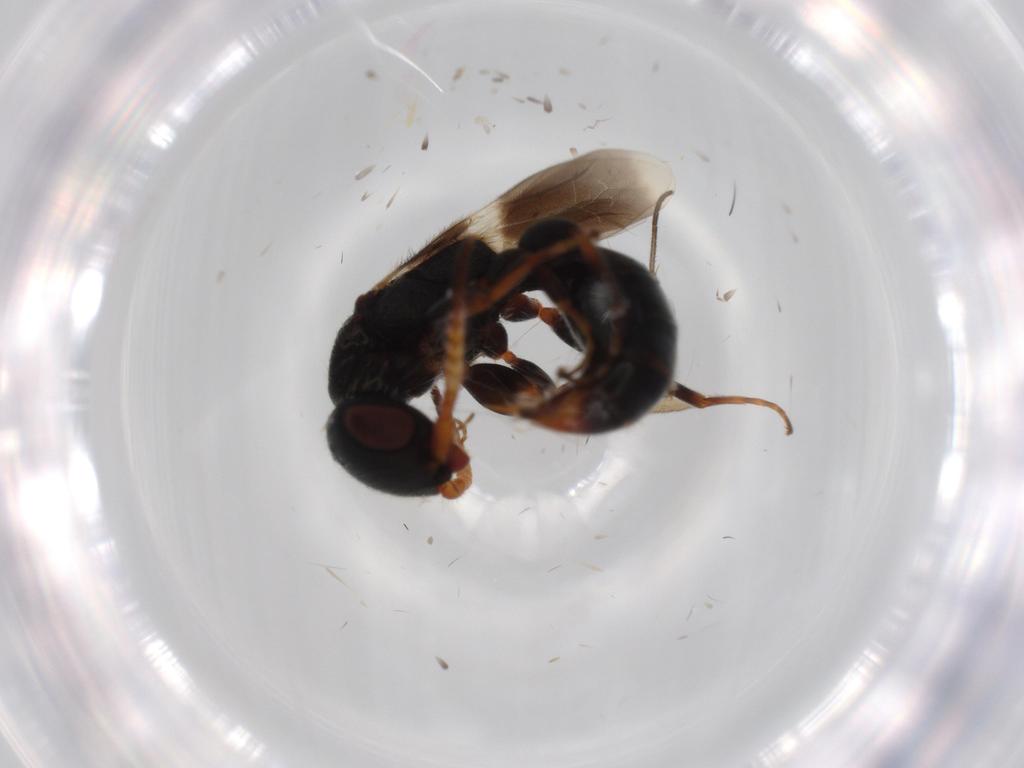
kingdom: Animalia
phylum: Arthropoda
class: Insecta
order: Hymenoptera
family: Bethylidae
